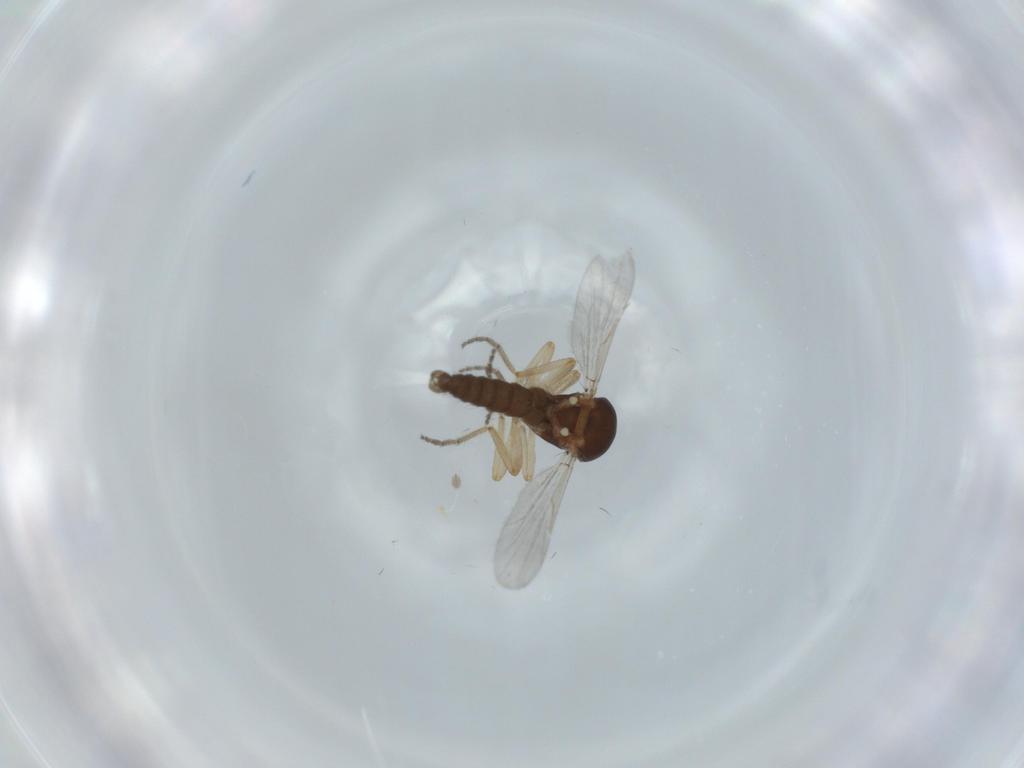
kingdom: Animalia
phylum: Arthropoda
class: Insecta
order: Diptera
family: Ceratopogonidae
